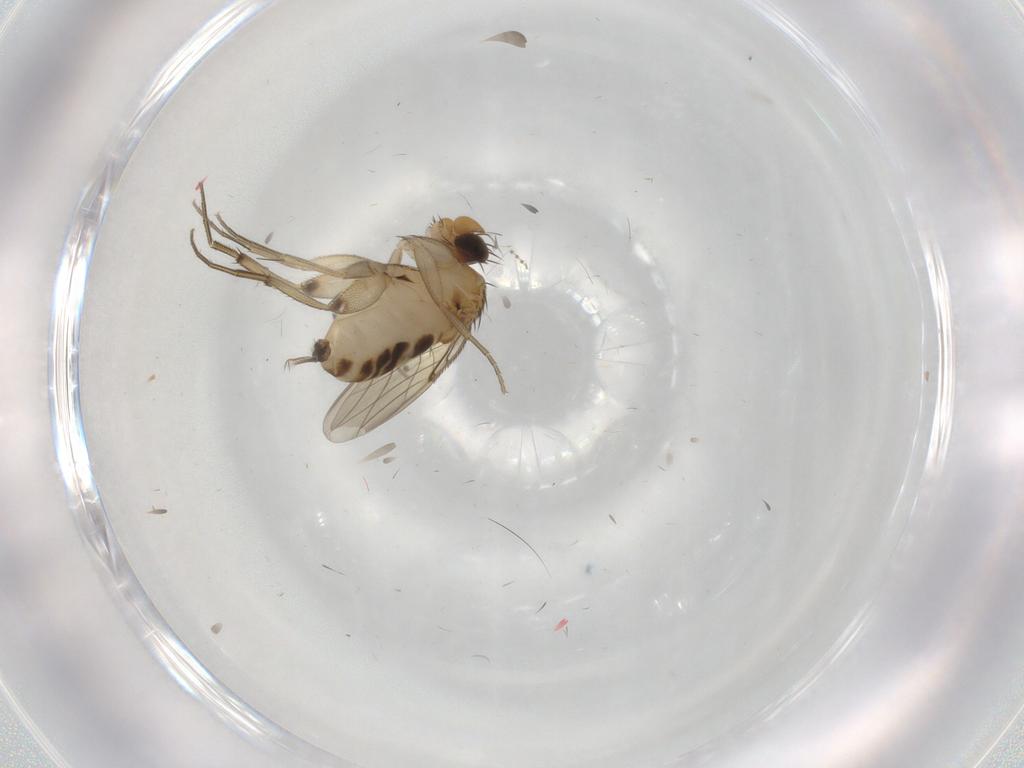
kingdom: Animalia
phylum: Arthropoda
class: Insecta
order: Diptera
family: Phoridae
